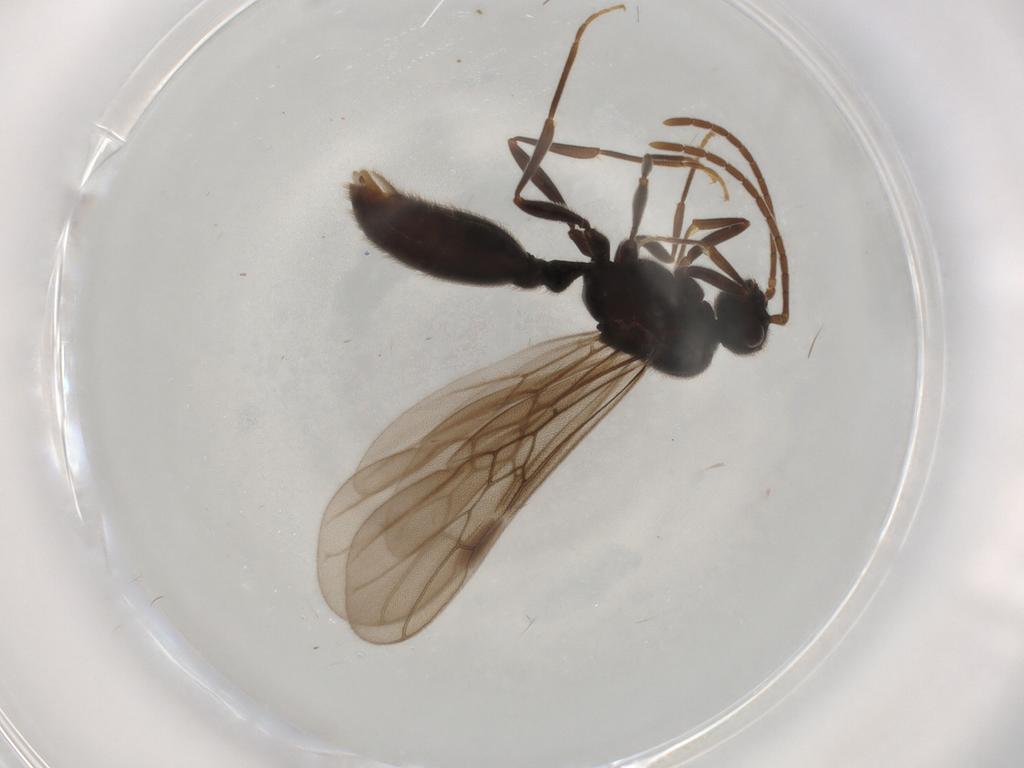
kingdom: Animalia
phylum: Arthropoda
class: Insecta
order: Hymenoptera
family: Formicidae
